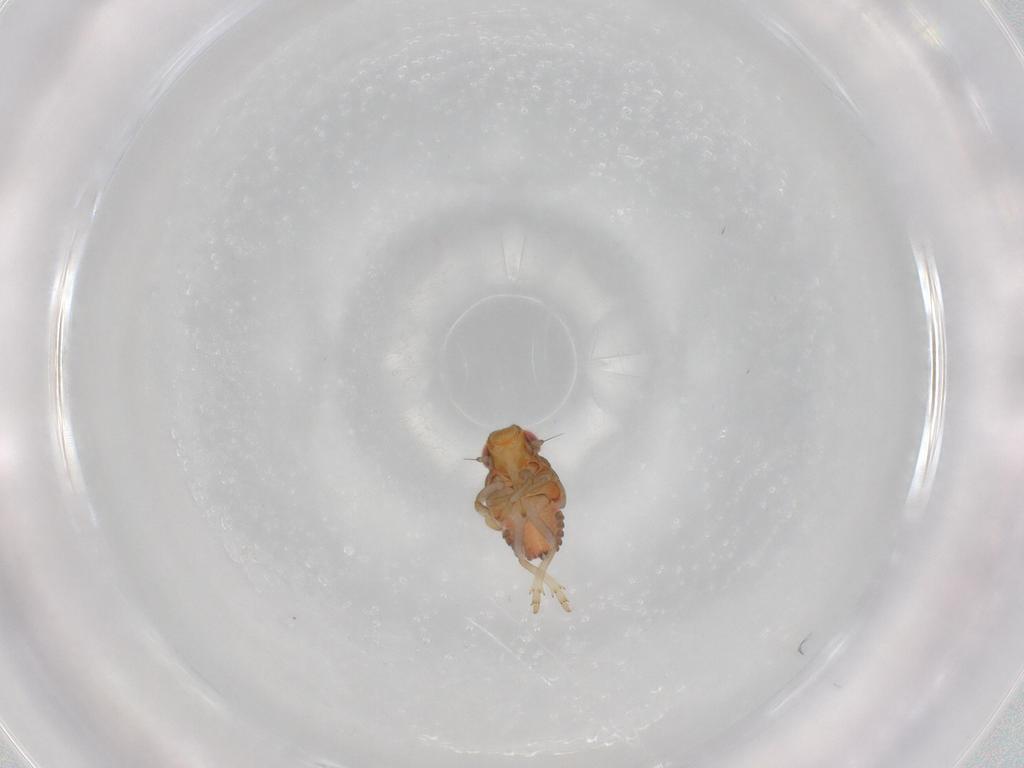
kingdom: Animalia
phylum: Arthropoda
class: Insecta
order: Hemiptera
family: Issidae
